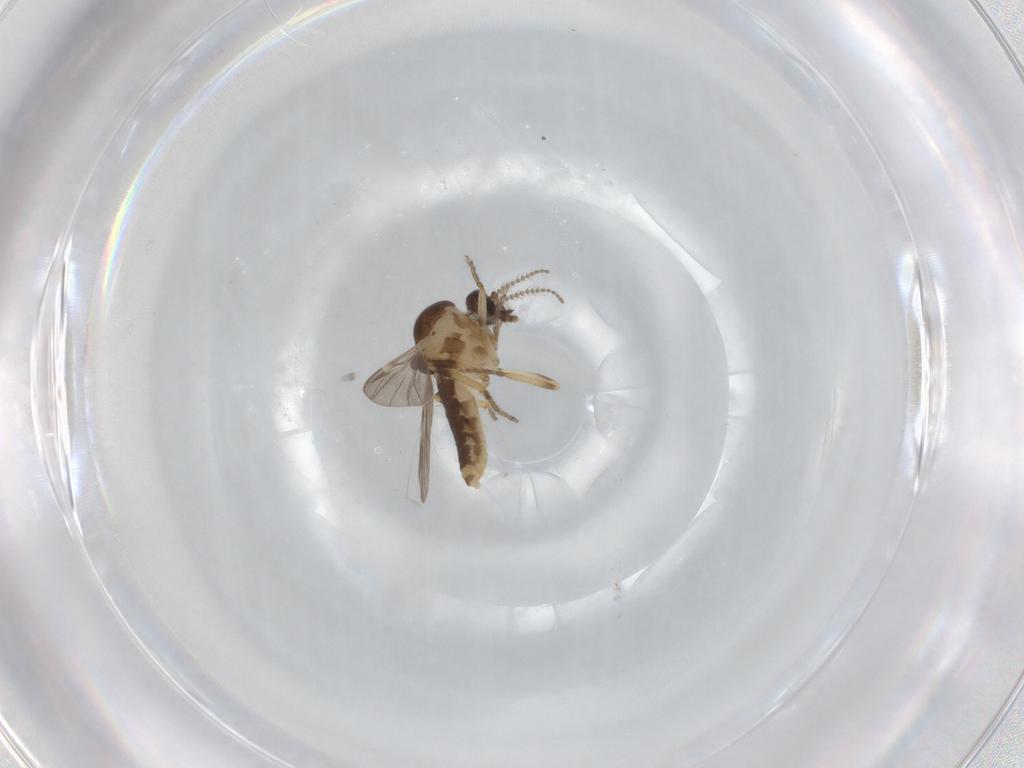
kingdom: Animalia
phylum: Arthropoda
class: Insecta
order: Diptera
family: Ceratopogonidae
